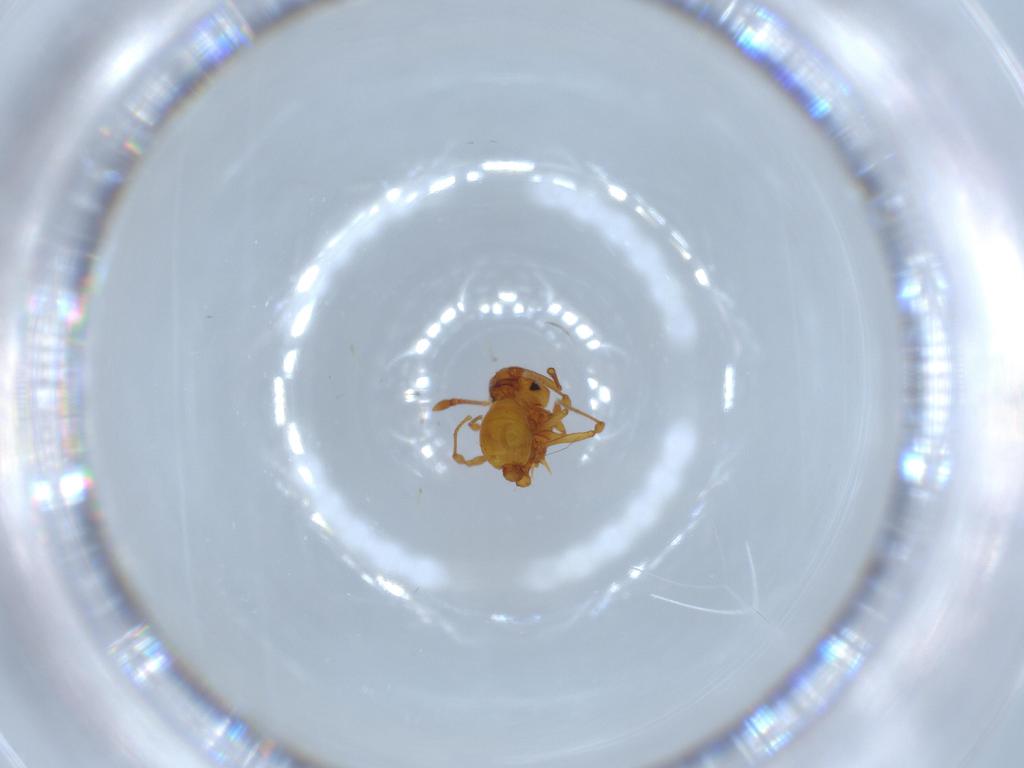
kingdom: Animalia
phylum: Arthropoda
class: Insecta
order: Hymenoptera
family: Formicidae
